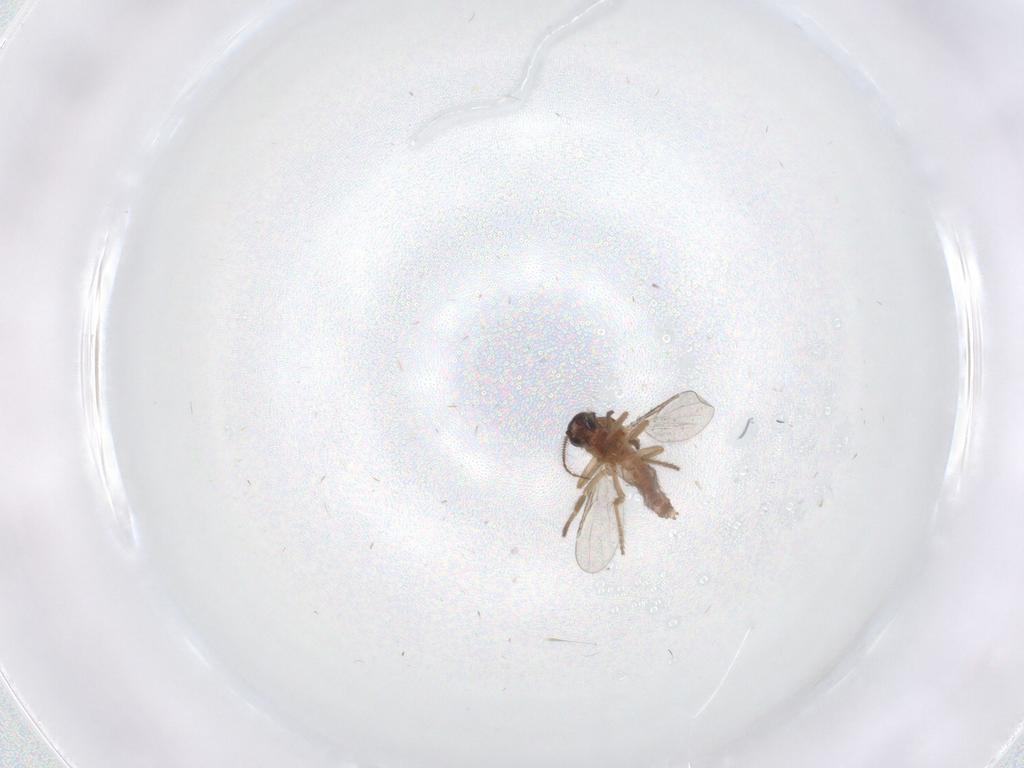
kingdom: Animalia
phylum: Arthropoda
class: Insecta
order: Diptera
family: Ceratopogonidae
